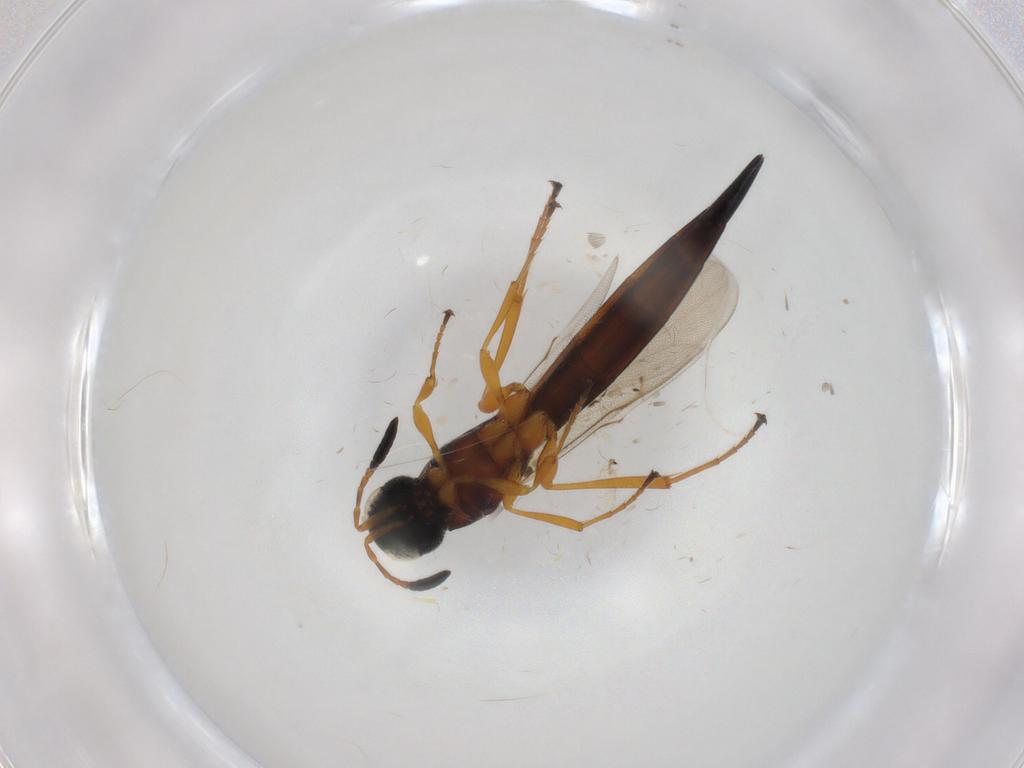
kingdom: Animalia
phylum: Arthropoda
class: Insecta
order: Hymenoptera
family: Scelionidae
